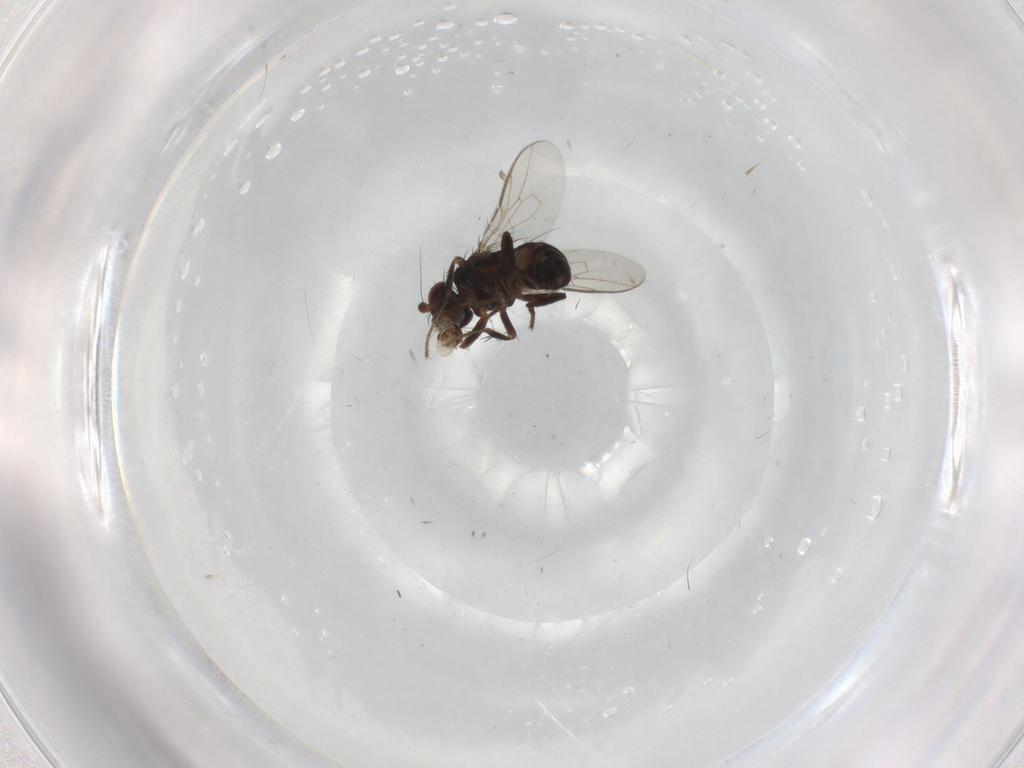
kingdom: Animalia
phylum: Arthropoda
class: Insecta
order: Diptera
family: Sphaeroceridae
